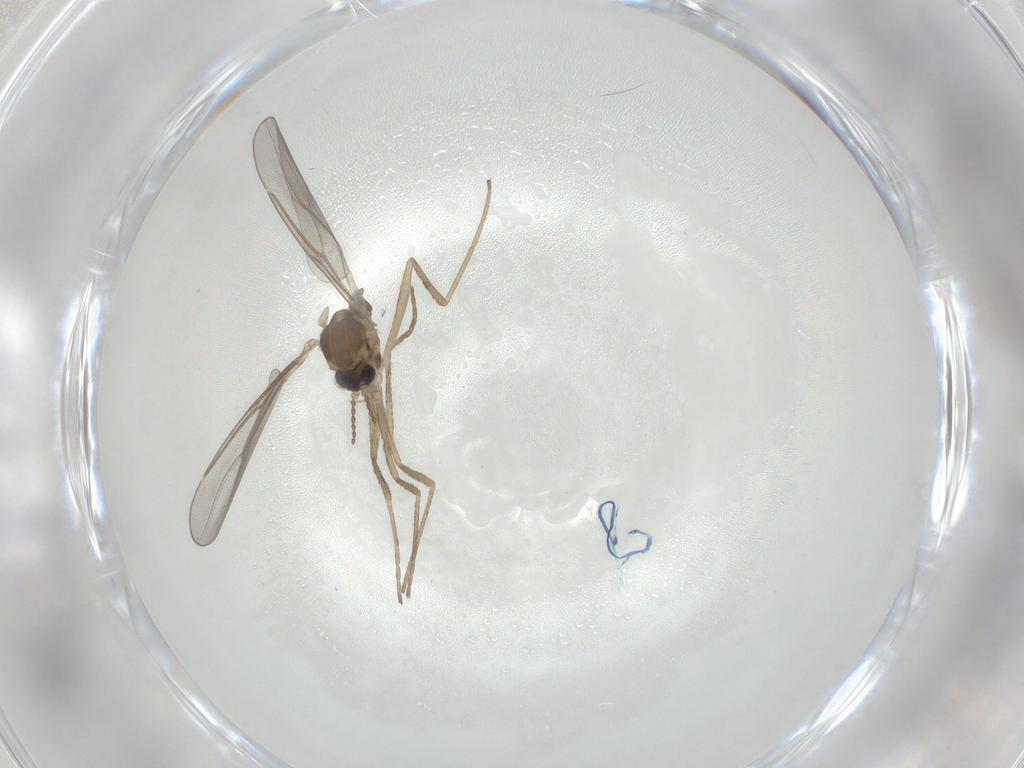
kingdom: Animalia
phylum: Arthropoda
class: Insecta
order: Diptera
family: Cecidomyiidae
